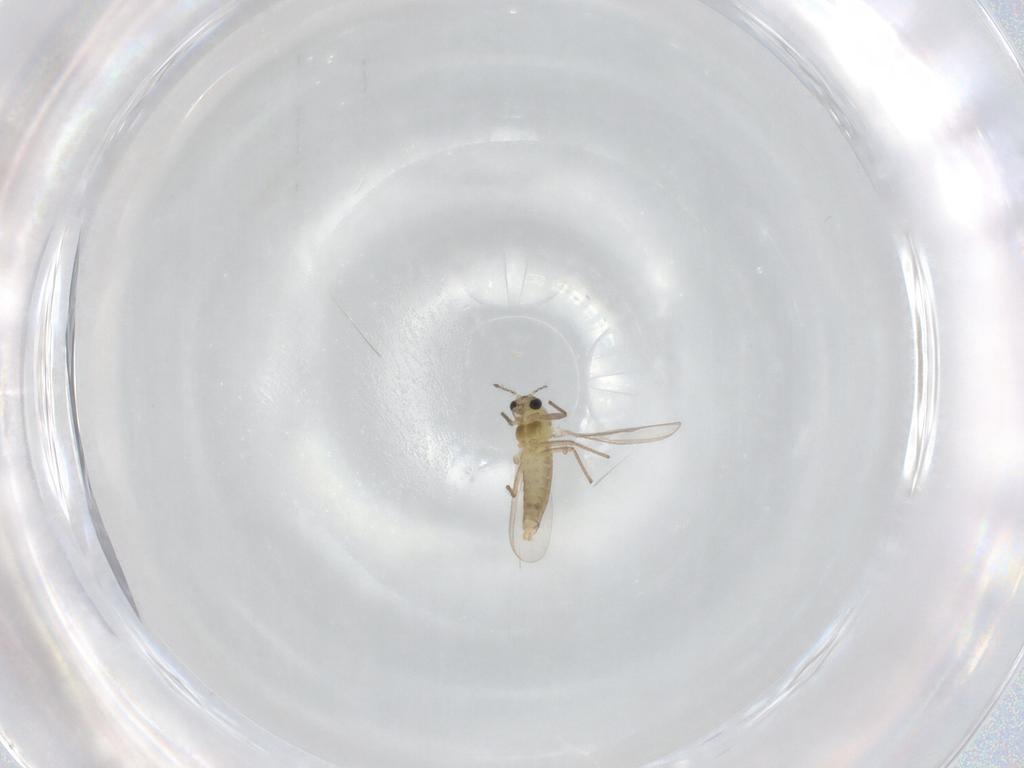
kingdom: Animalia
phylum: Arthropoda
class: Insecta
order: Diptera
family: Chironomidae
